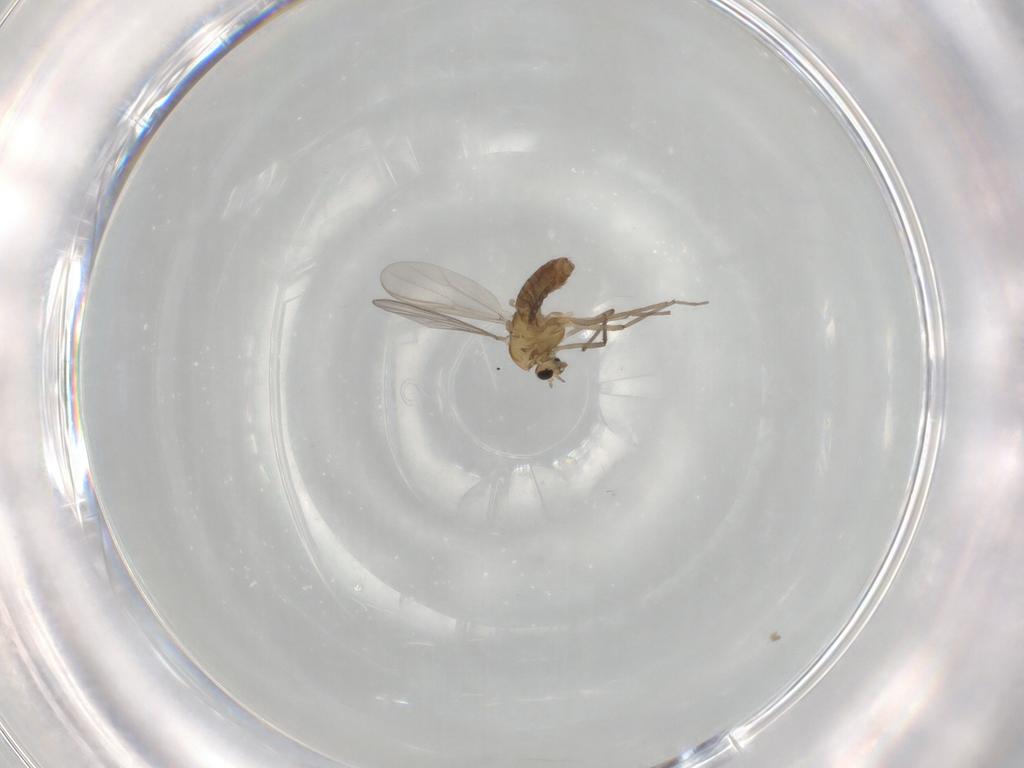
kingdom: Animalia
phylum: Arthropoda
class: Insecta
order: Diptera
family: Chironomidae
